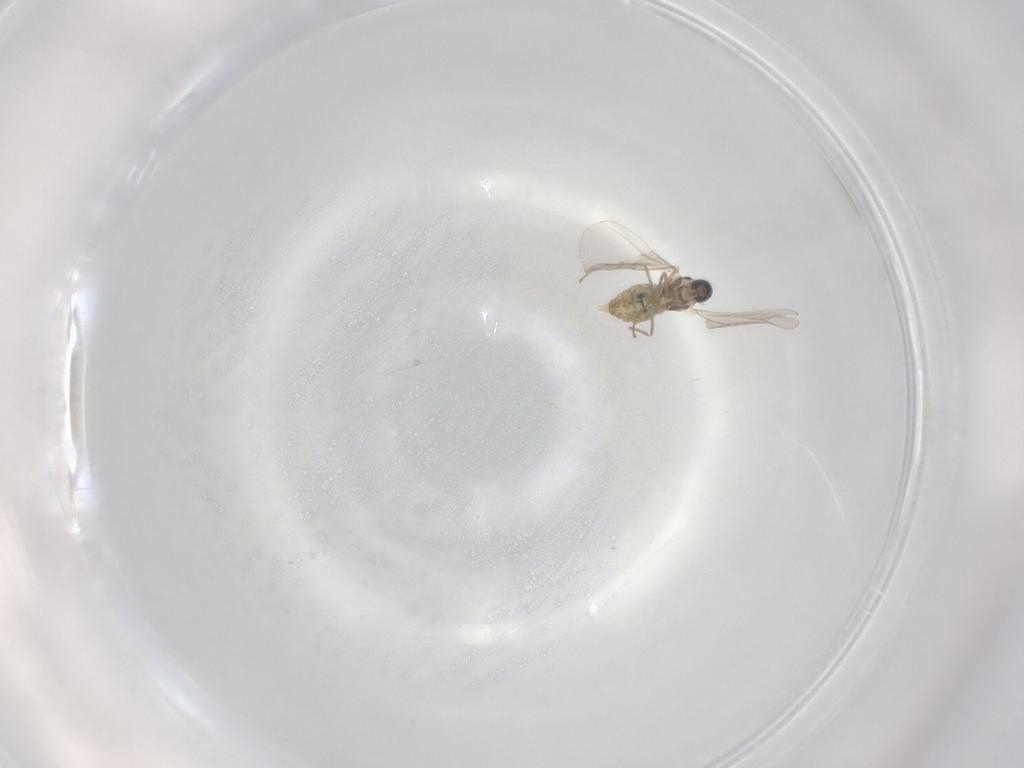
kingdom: Animalia
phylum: Arthropoda
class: Insecta
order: Diptera
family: Cecidomyiidae
